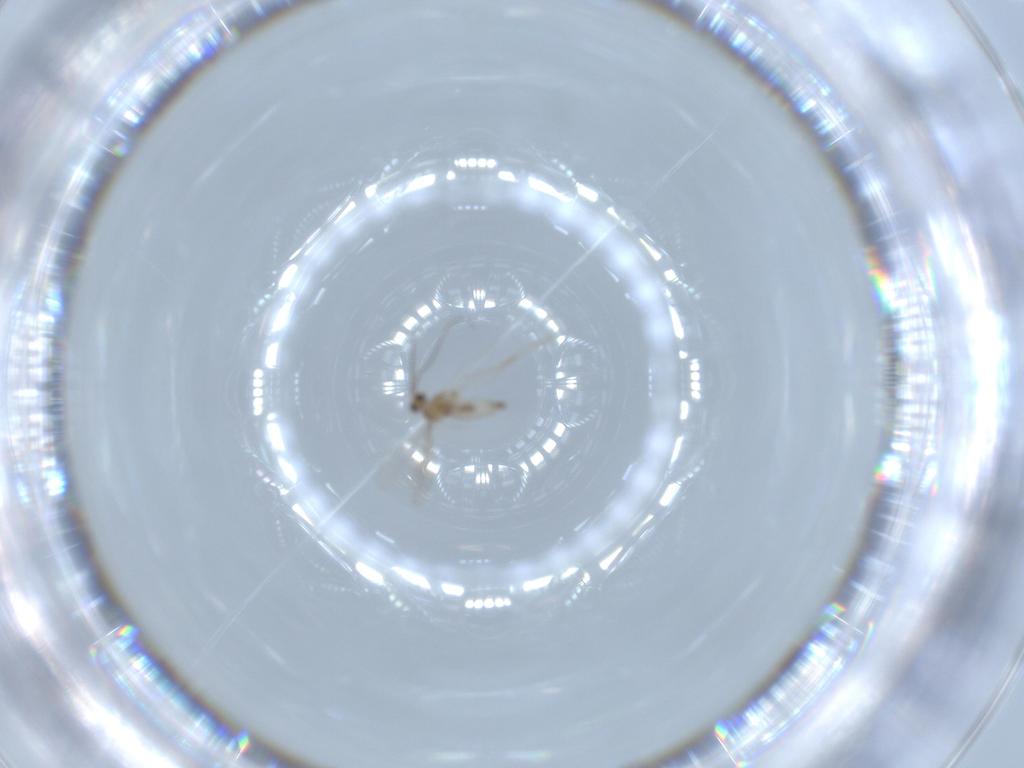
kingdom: Animalia
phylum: Arthropoda
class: Insecta
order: Diptera
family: Cecidomyiidae
